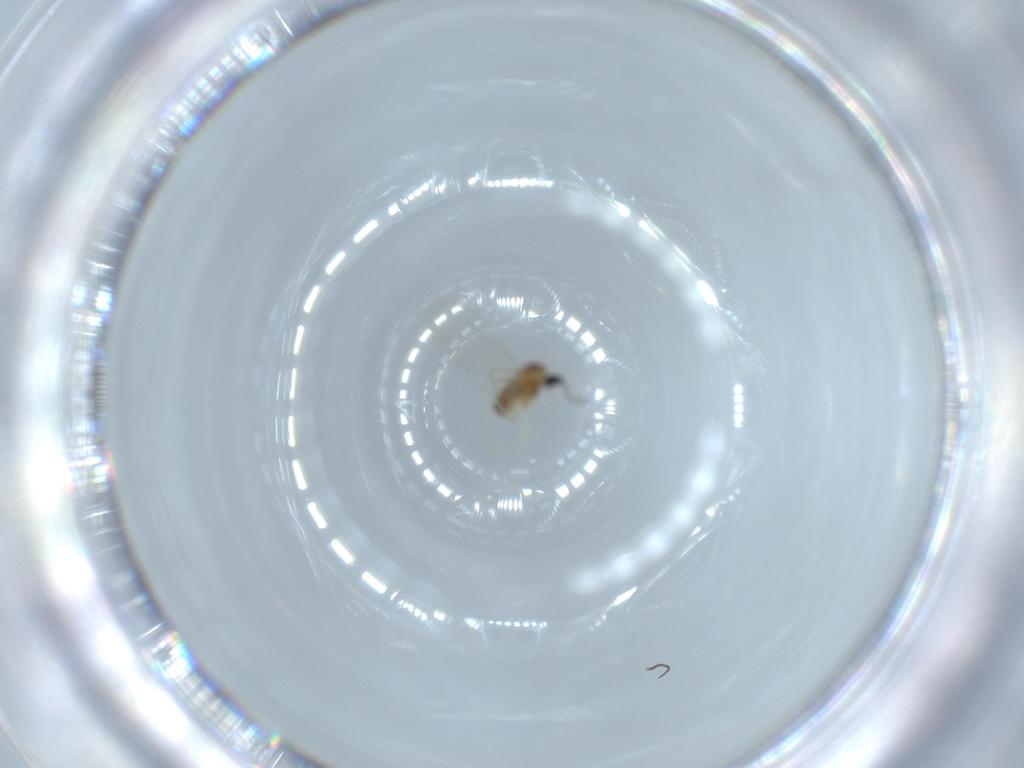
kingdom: Animalia
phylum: Arthropoda
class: Insecta
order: Diptera
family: Cecidomyiidae
